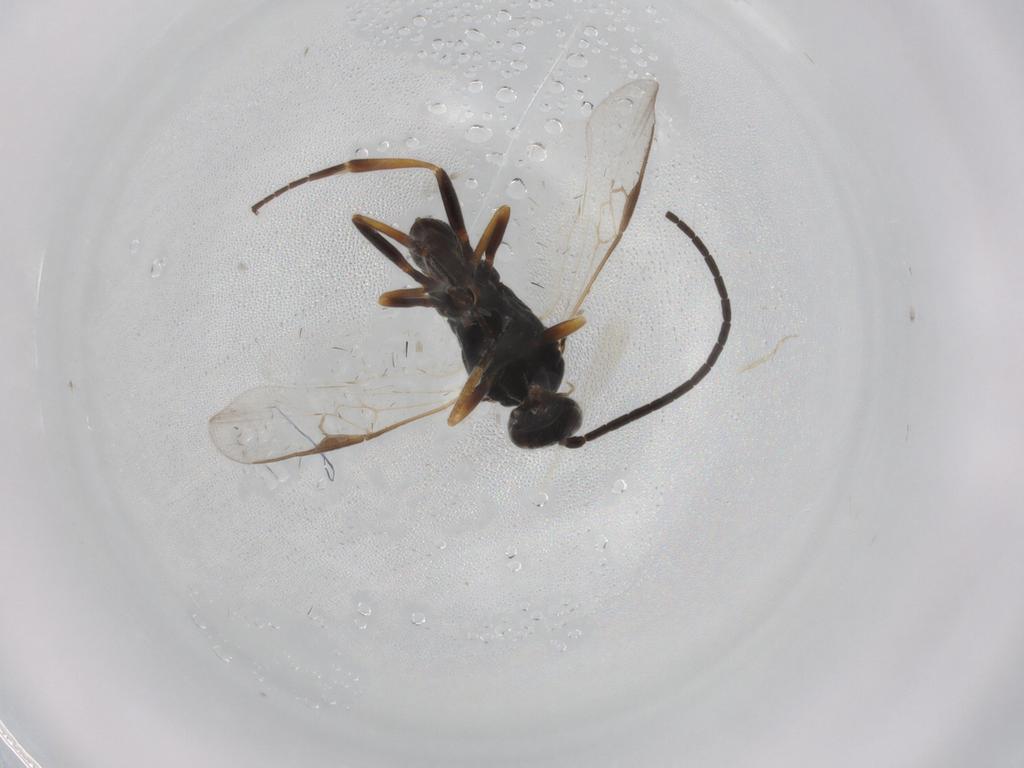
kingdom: Animalia
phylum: Arthropoda
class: Insecta
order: Hymenoptera
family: Braconidae
